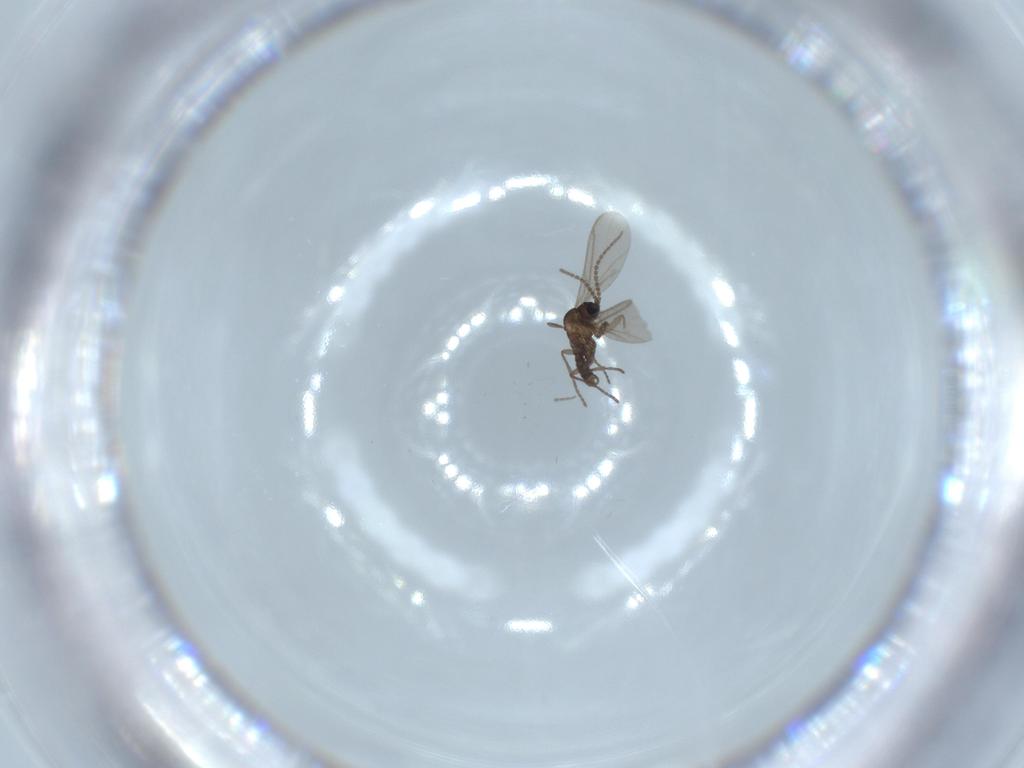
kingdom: Animalia
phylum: Arthropoda
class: Insecta
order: Diptera
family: Sciaridae
